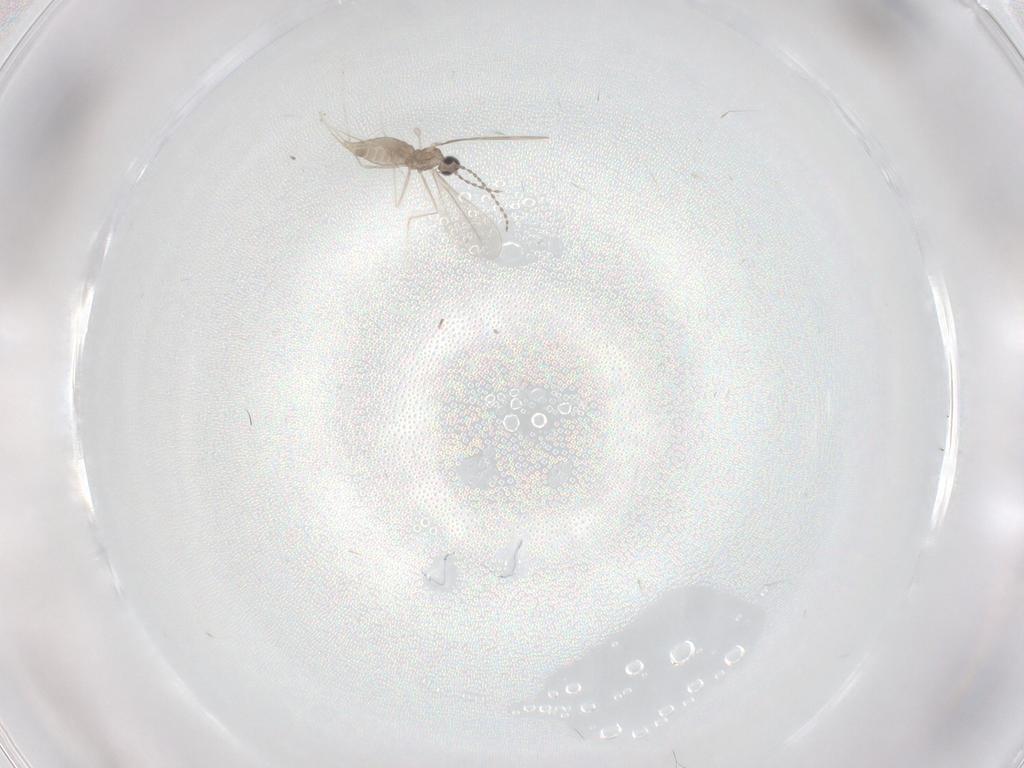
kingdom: Animalia
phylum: Arthropoda
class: Insecta
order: Diptera
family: Cecidomyiidae
